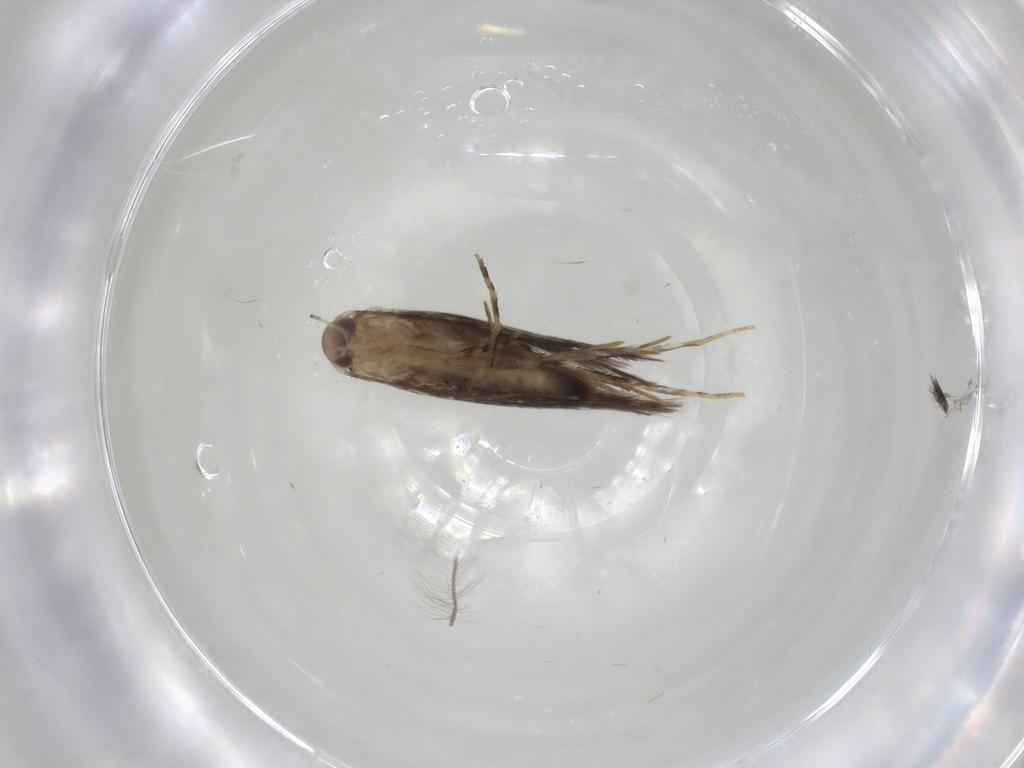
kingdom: Animalia
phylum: Arthropoda
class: Insecta
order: Lepidoptera
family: Elachistidae
